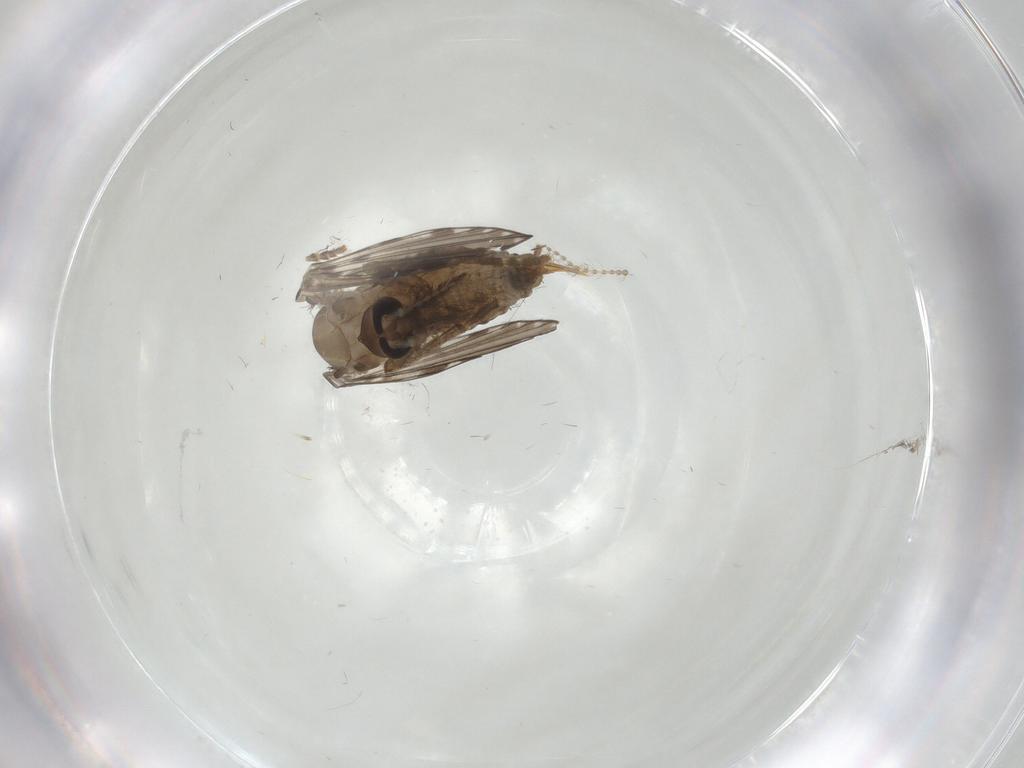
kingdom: Animalia
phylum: Arthropoda
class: Insecta
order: Diptera
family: Psychodidae
